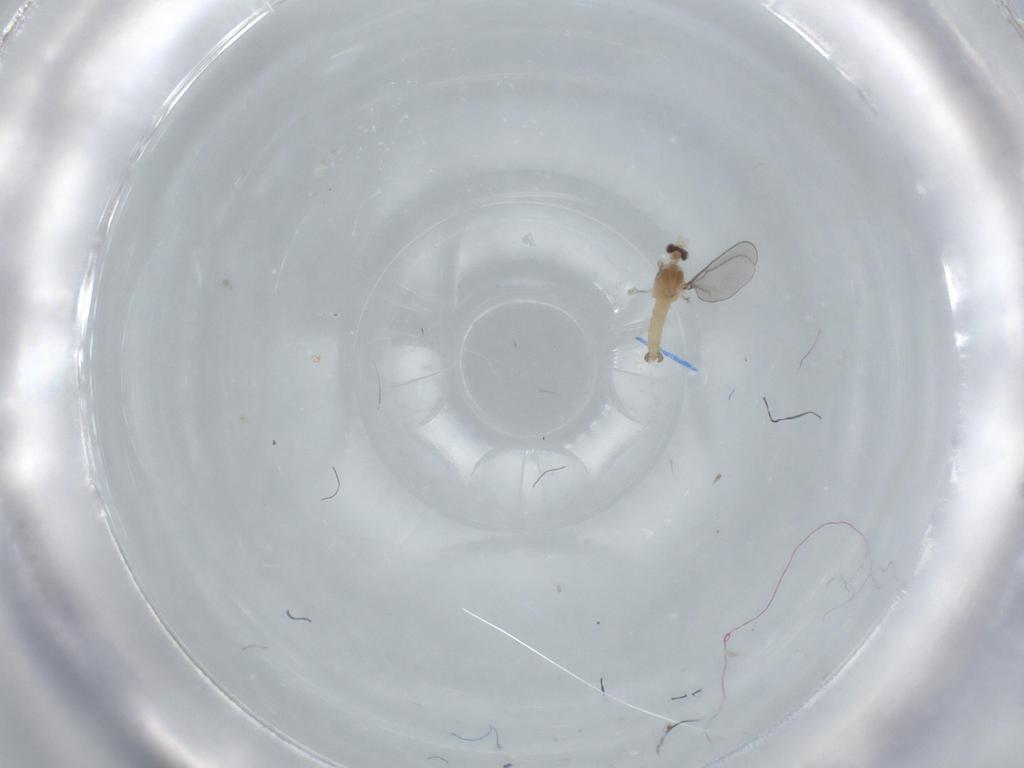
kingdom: Animalia
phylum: Arthropoda
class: Insecta
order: Diptera
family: Cecidomyiidae
